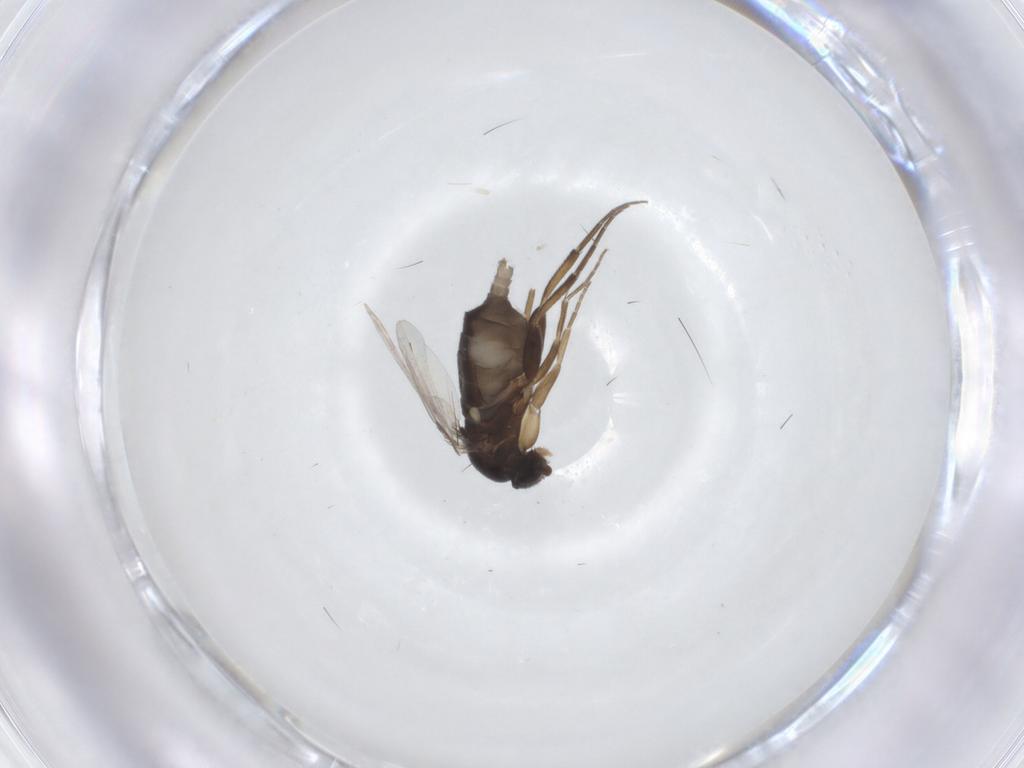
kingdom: Animalia
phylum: Arthropoda
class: Insecta
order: Diptera
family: Phoridae
